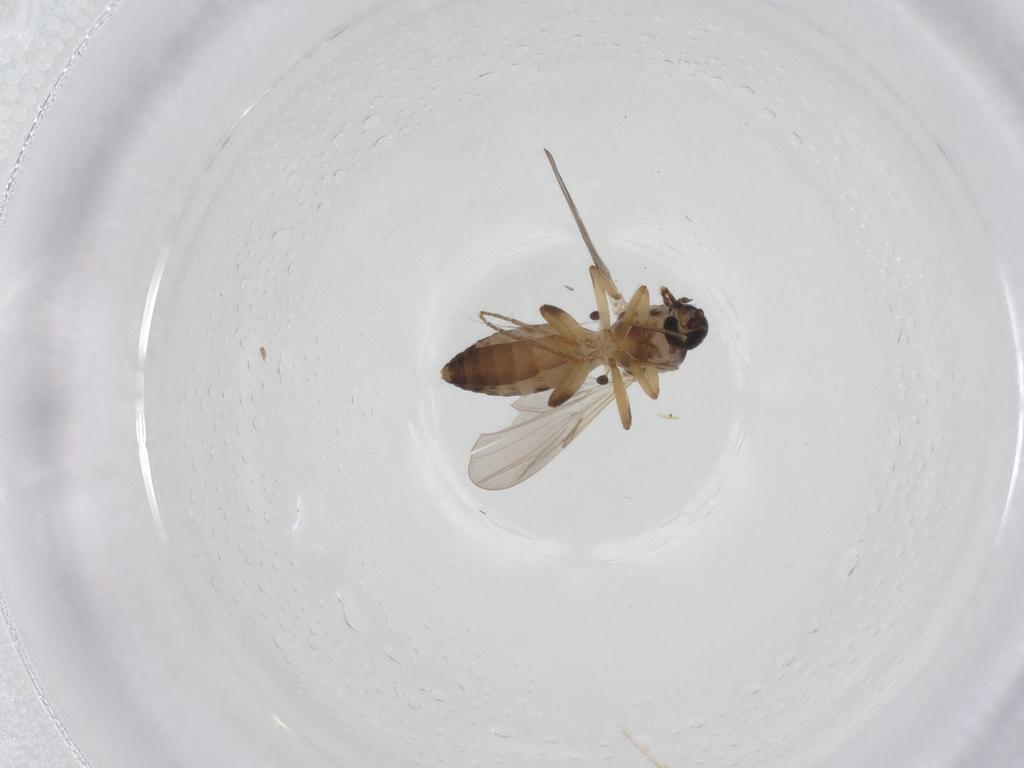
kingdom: Animalia
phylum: Arthropoda
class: Insecta
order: Diptera
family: Ceratopogonidae
